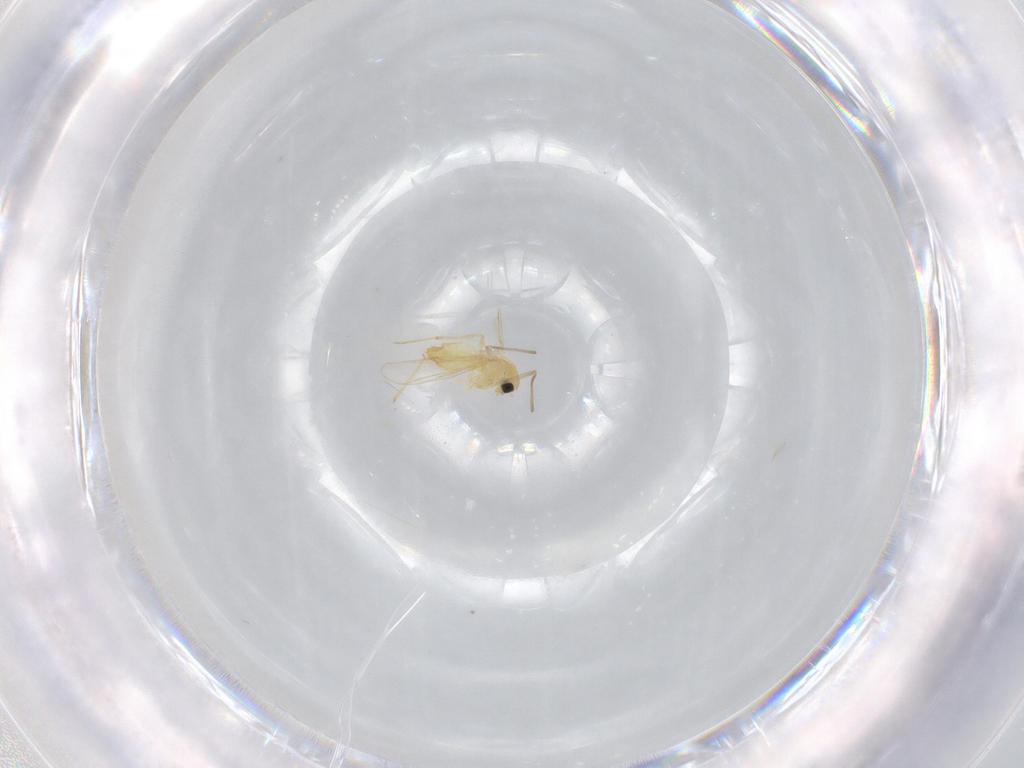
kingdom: Animalia
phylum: Arthropoda
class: Insecta
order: Diptera
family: Chironomidae
